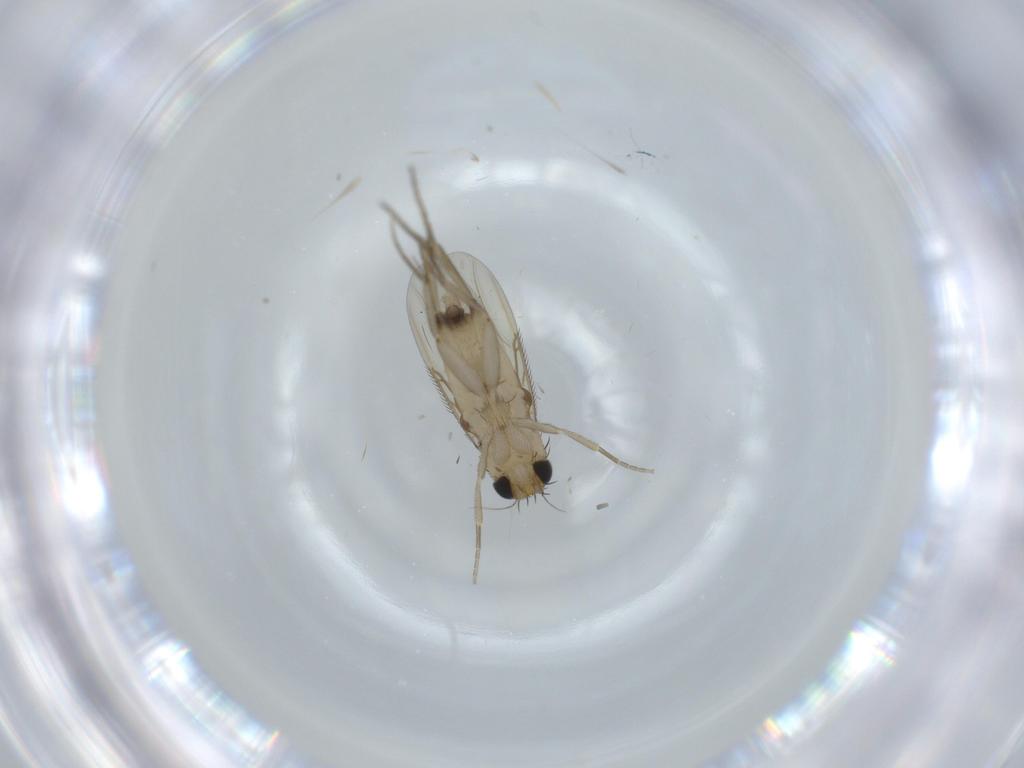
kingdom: Animalia
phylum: Arthropoda
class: Insecta
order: Diptera
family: Phoridae
